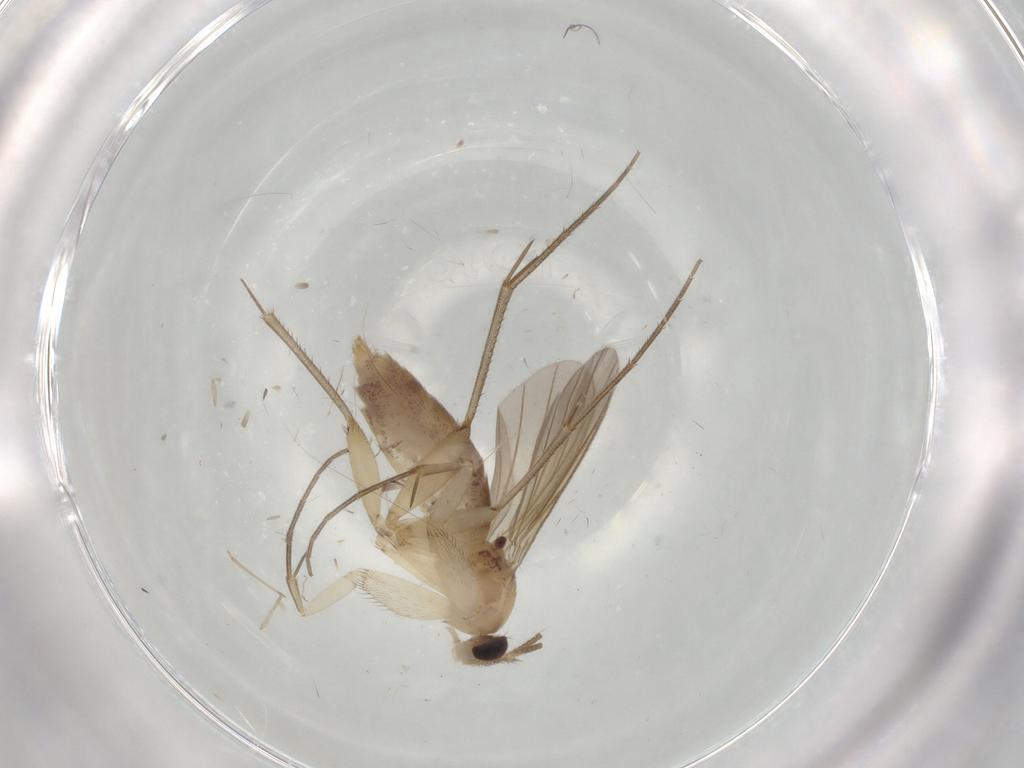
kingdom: Animalia
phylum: Arthropoda
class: Insecta
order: Diptera
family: Mycetophilidae
